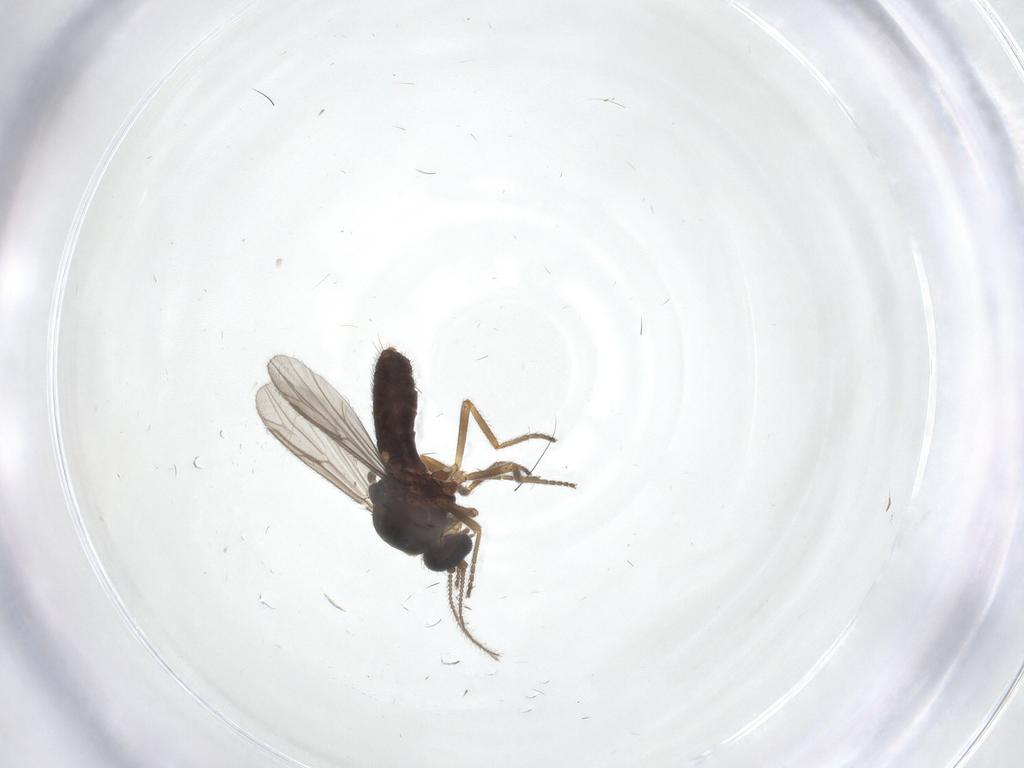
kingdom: Animalia
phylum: Arthropoda
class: Insecta
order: Diptera
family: Ceratopogonidae
